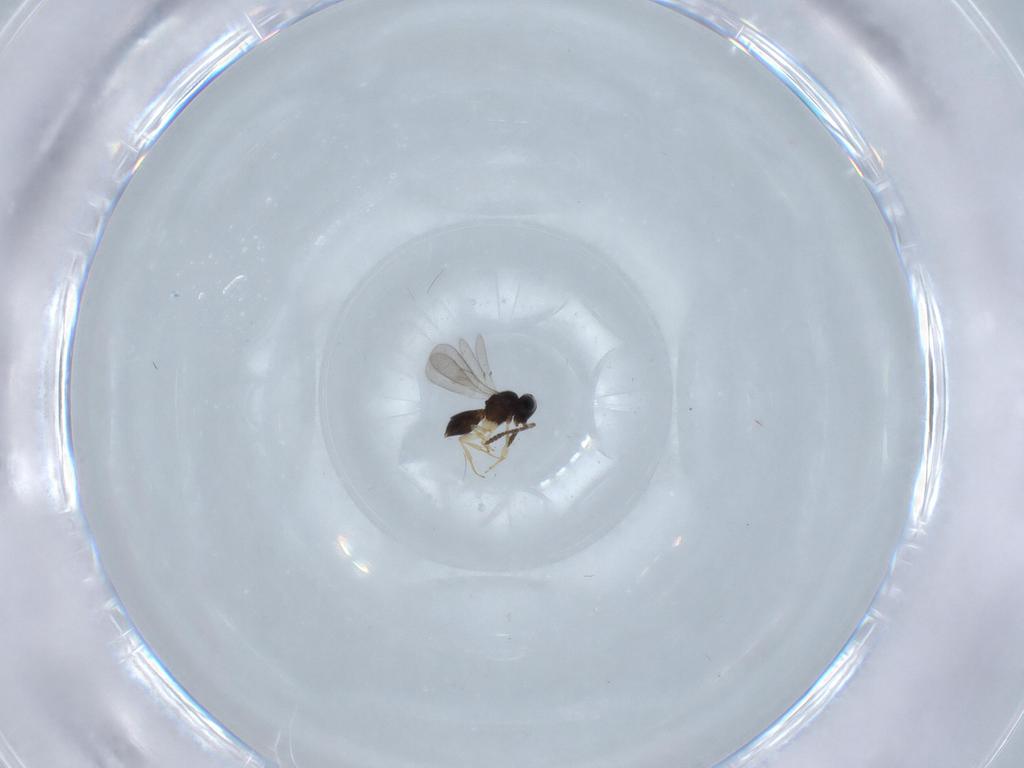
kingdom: Animalia
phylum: Arthropoda
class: Insecta
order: Hymenoptera
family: Scelionidae
